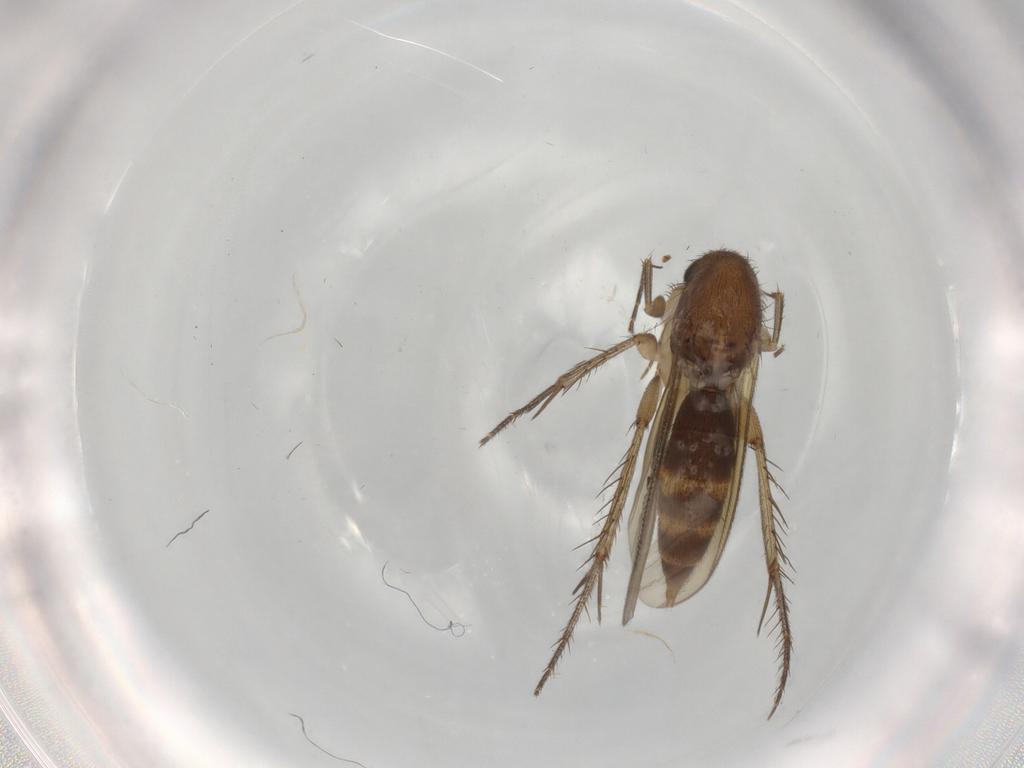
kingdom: Animalia
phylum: Arthropoda
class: Insecta
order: Diptera
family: Mycetophilidae
